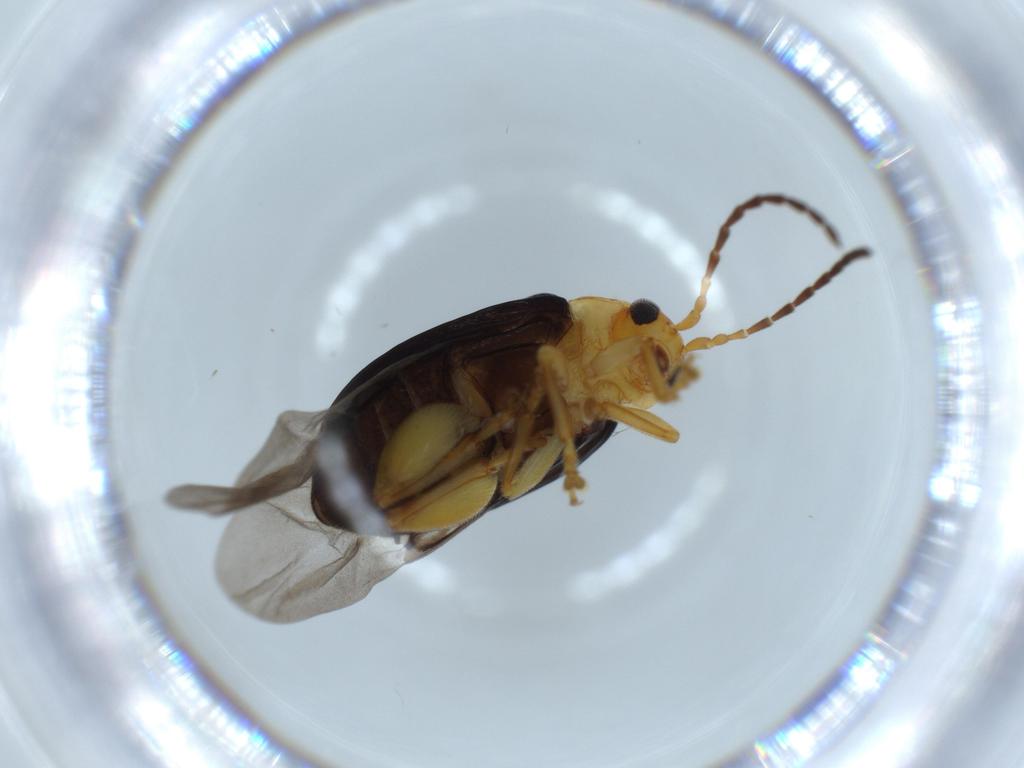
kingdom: Animalia
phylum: Arthropoda
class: Insecta
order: Coleoptera
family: Chrysomelidae
